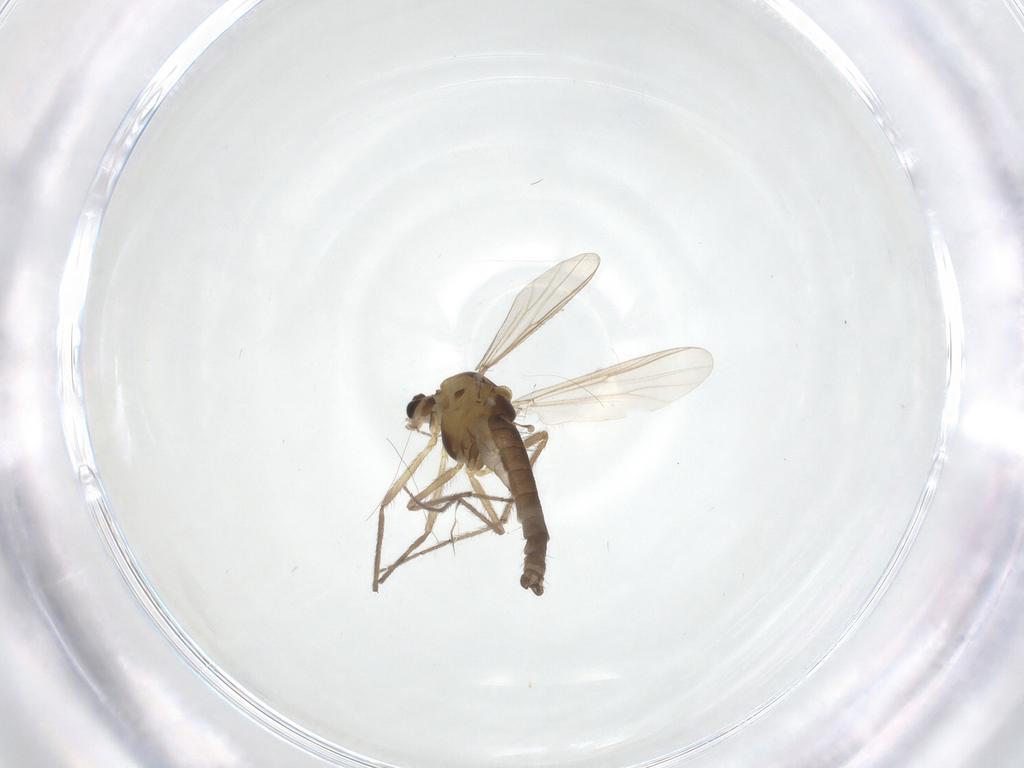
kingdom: Animalia
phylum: Arthropoda
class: Insecta
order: Diptera
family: Chironomidae
